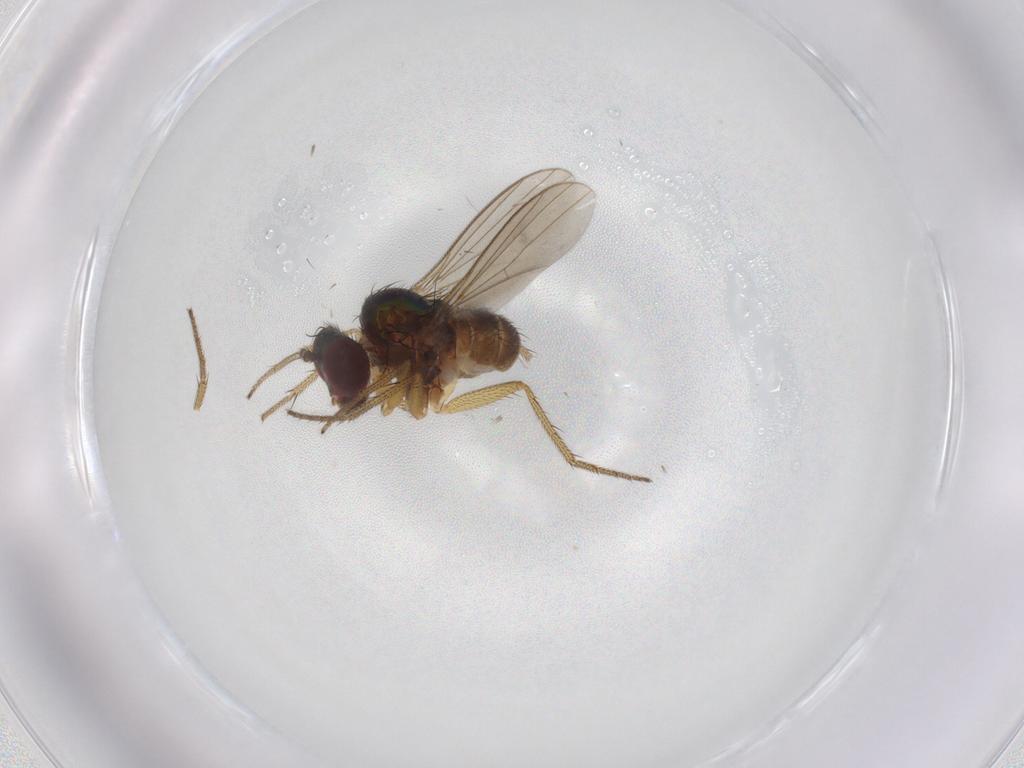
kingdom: Animalia
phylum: Arthropoda
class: Insecta
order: Diptera
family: Dolichopodidae
